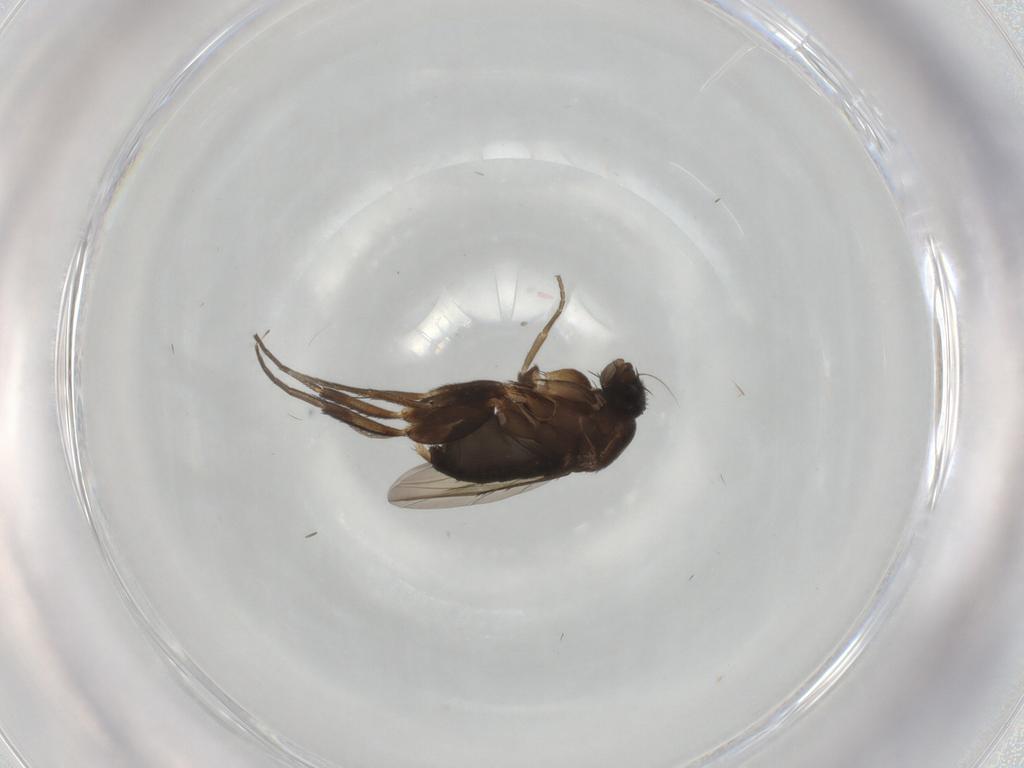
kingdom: Animalia
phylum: Arthropoda
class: Insecta
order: Diptera
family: Phoridae
